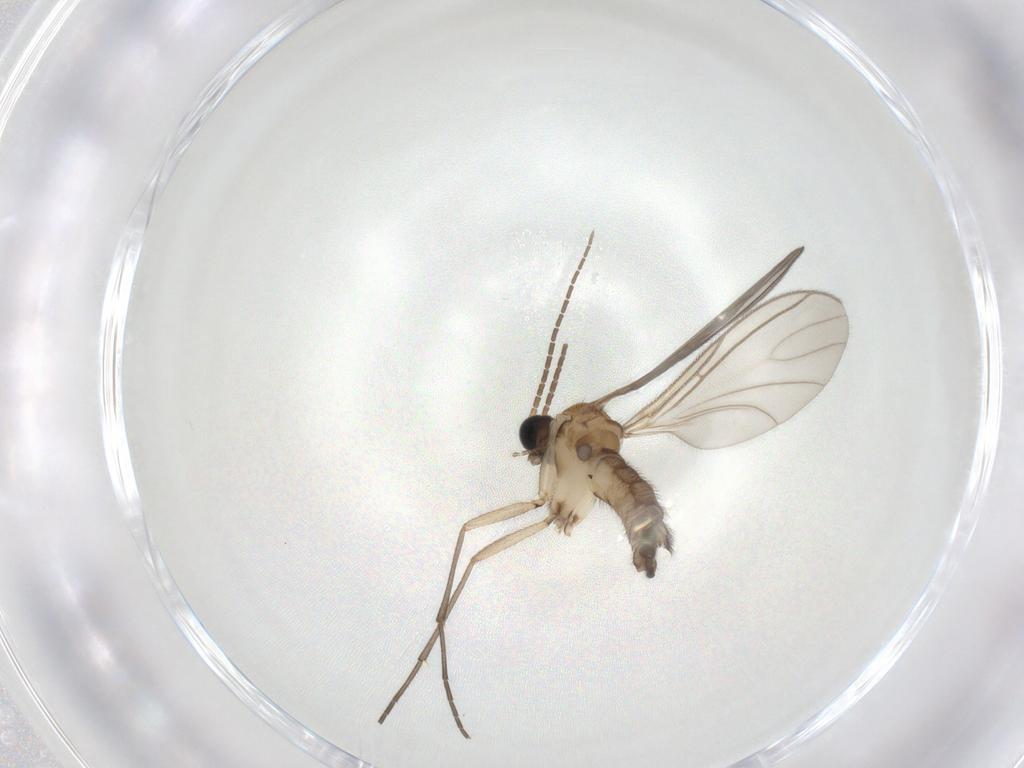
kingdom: Animalia
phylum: Arthropoda
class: Insecta
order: Diptera
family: Sciaridae
